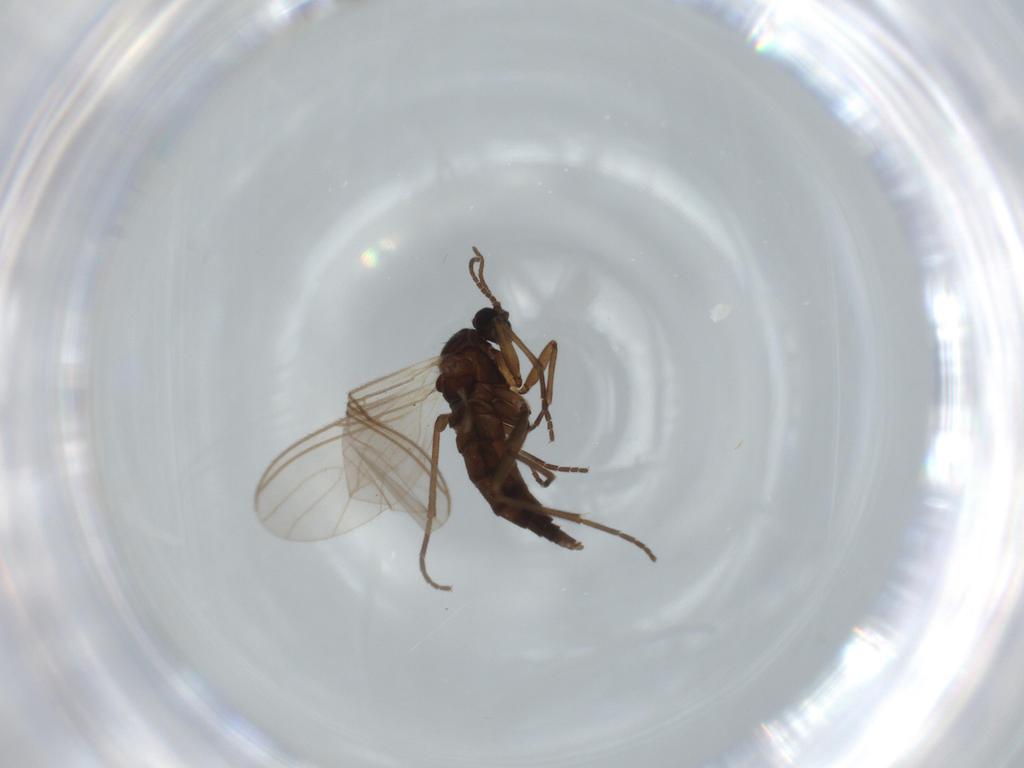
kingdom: Animalia
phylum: Arthropoda
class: Insecta
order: Diptera
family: Sciaridae
